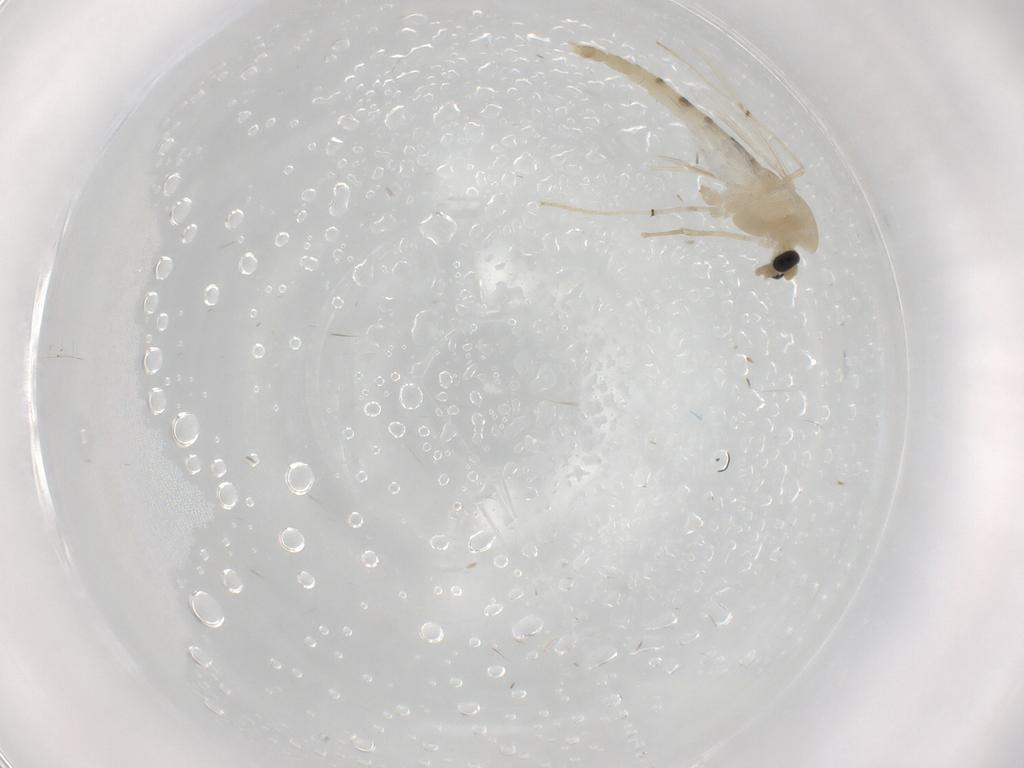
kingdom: Animalia
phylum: Arthropoda
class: Insecta
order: Diptera
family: Chironomidae
